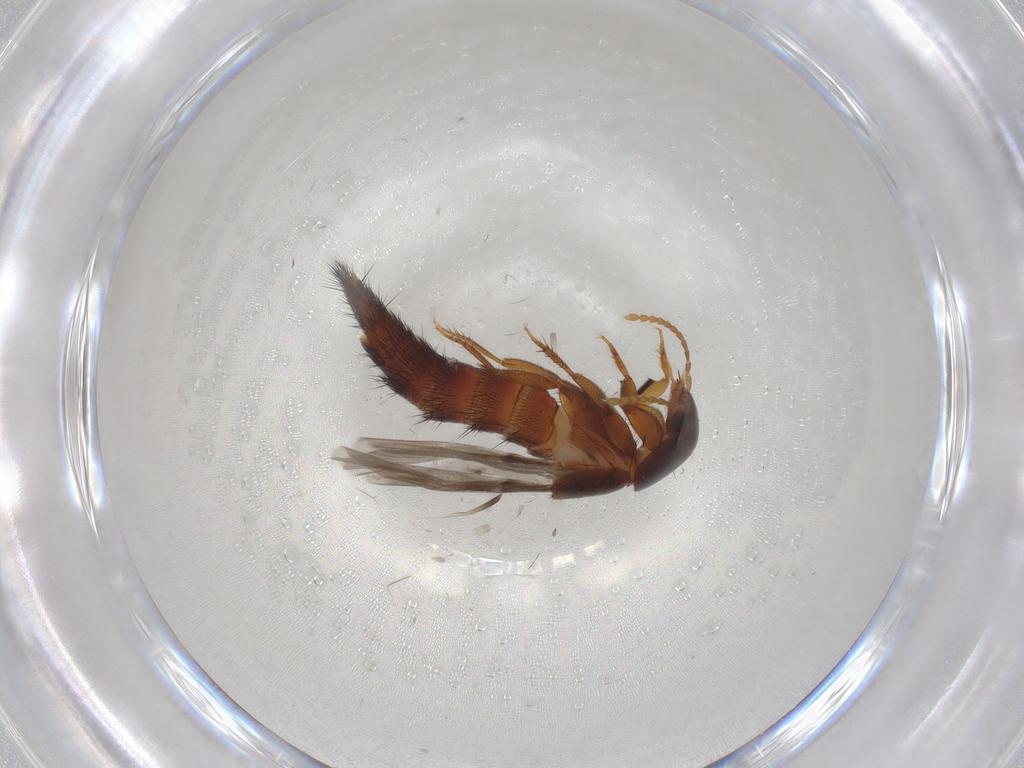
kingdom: Animalia
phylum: Arthropoda
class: Insecta
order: Coleoptera
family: Staphylinidae
